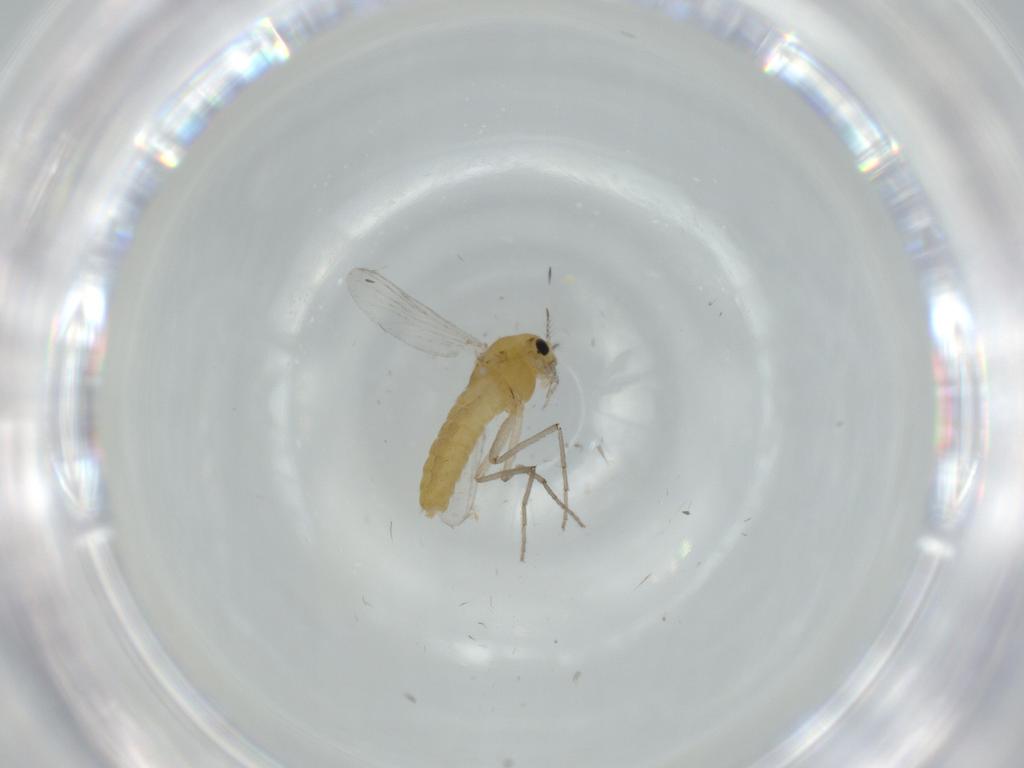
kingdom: Animalia
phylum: Arthropoda
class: Insecta
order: Diptera
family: Chironomidae
